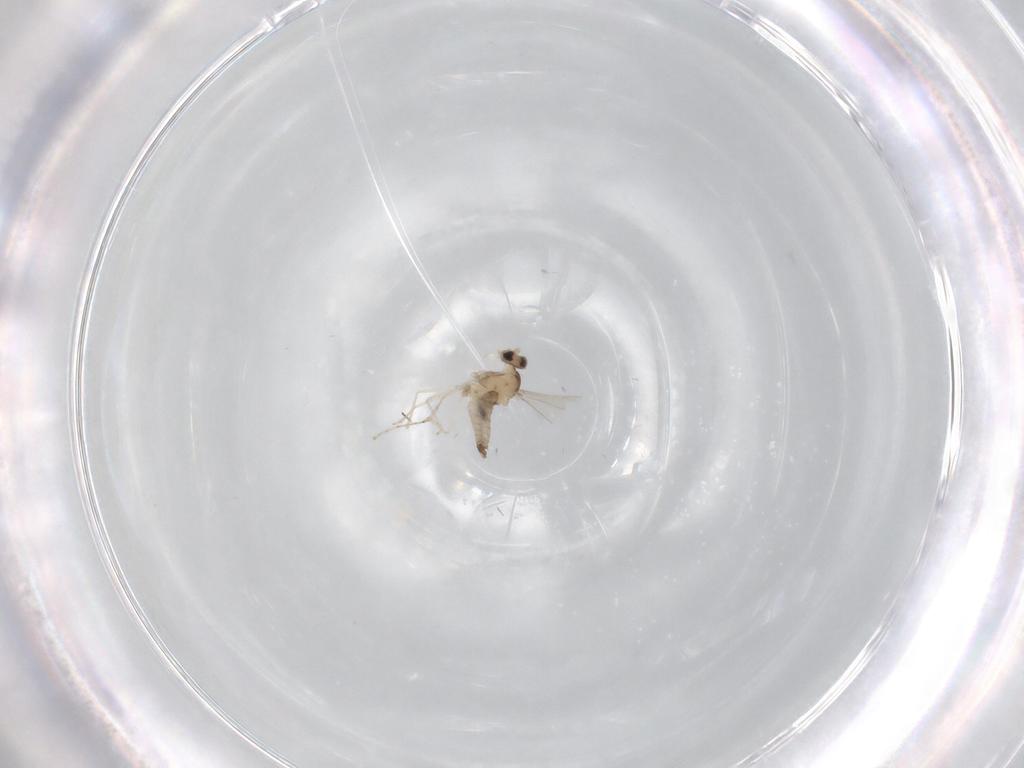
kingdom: Animalia
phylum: Arthropoda
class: Insecta
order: Diptera
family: Cecidomyiidae
